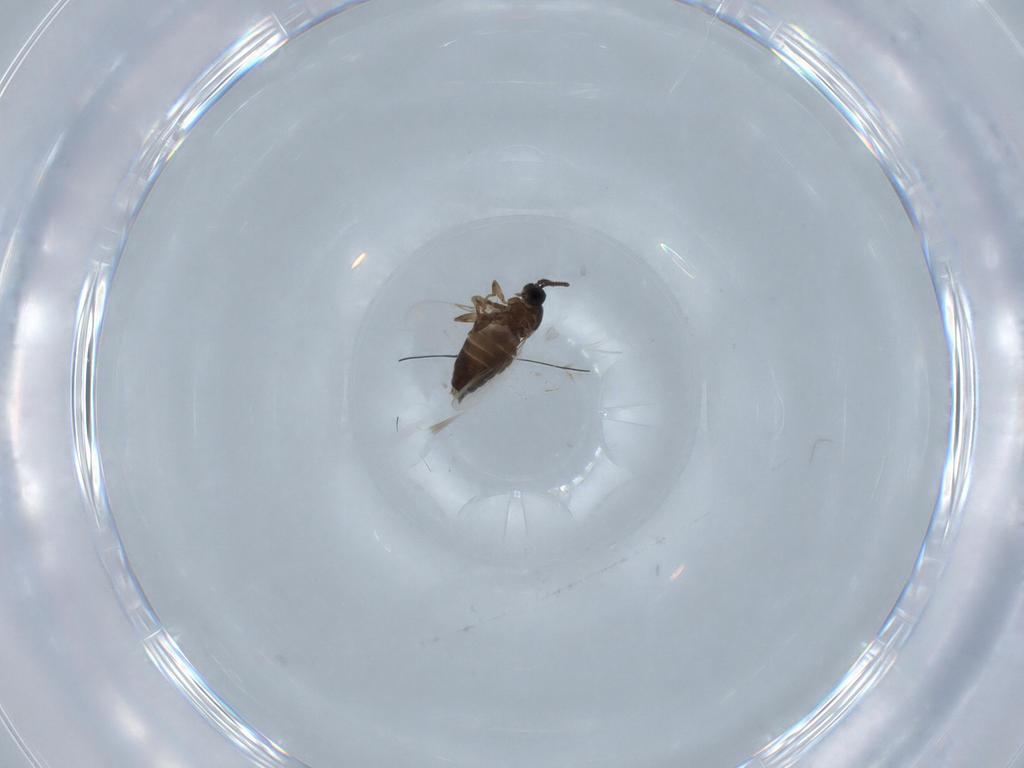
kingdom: Animalia
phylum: Arthropoda
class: Insecta
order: Diptera
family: Scatopsidae
